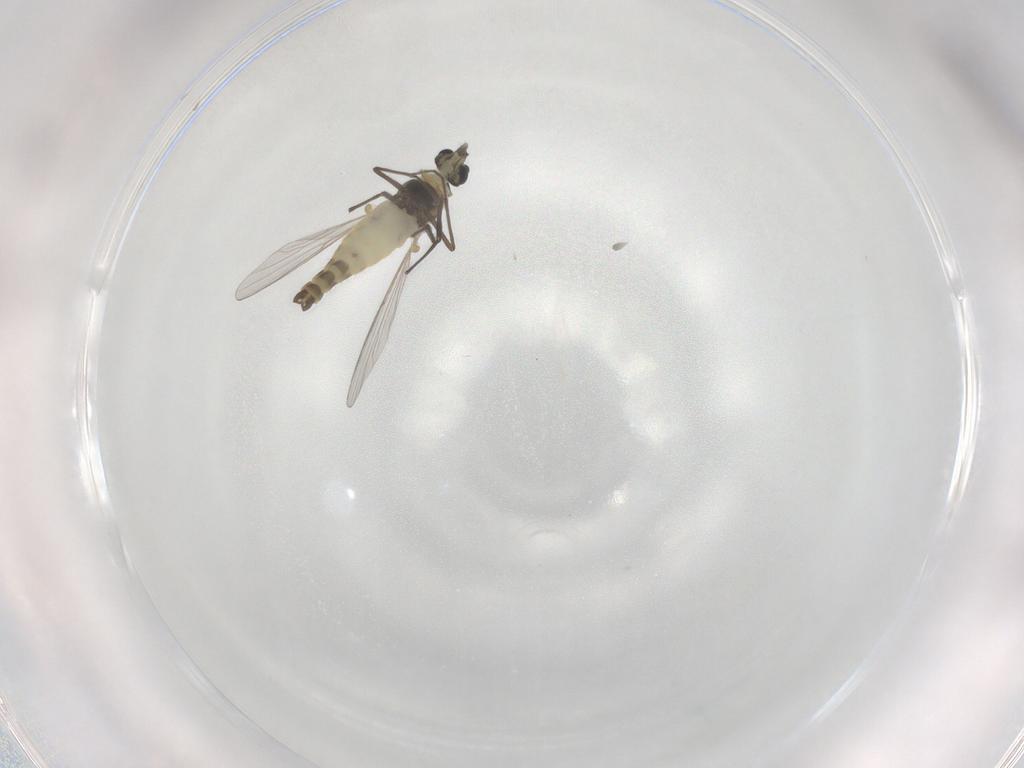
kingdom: Animalia
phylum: Arthropoda
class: Insecta
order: Diptera
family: Chironomidae
